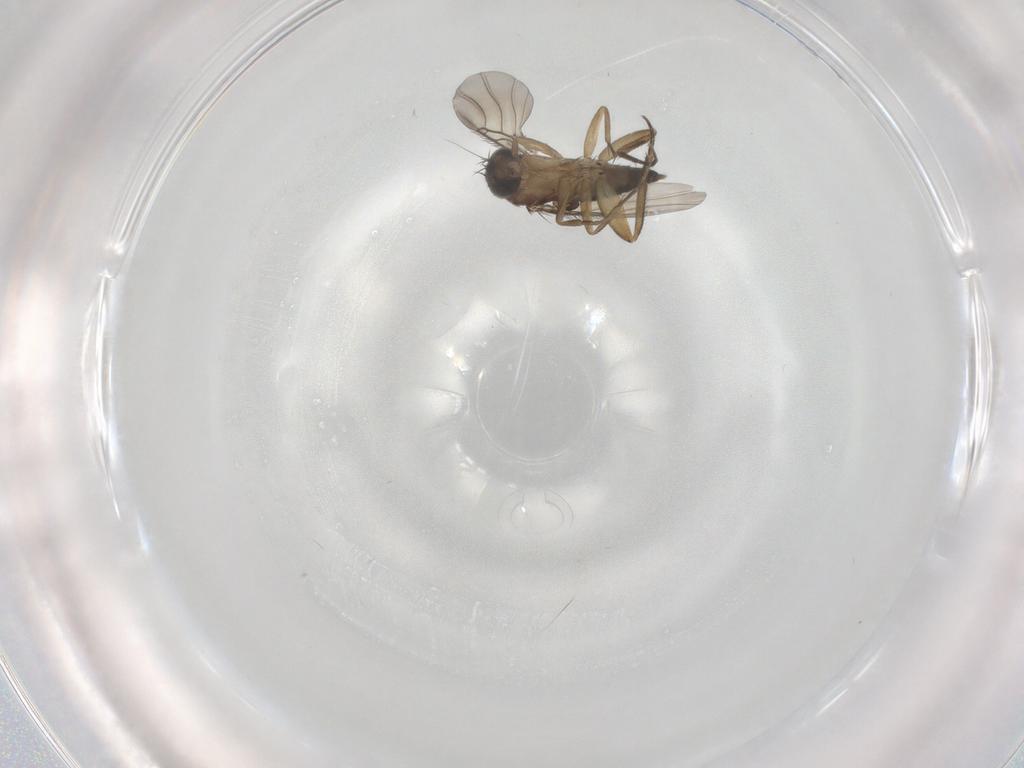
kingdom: Animalia
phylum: Arthropoda
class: Insecta
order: Diptera
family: Phoridae
